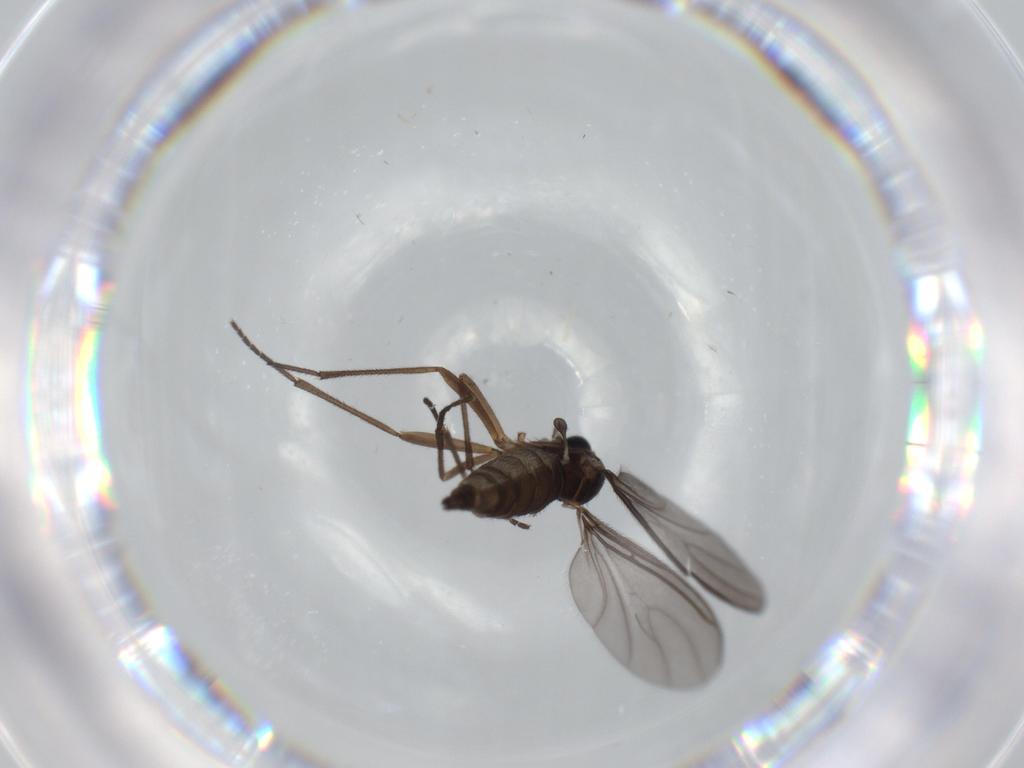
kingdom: Animalia
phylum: Arthropoda
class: Insecta
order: Diptera
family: Sciaridae
